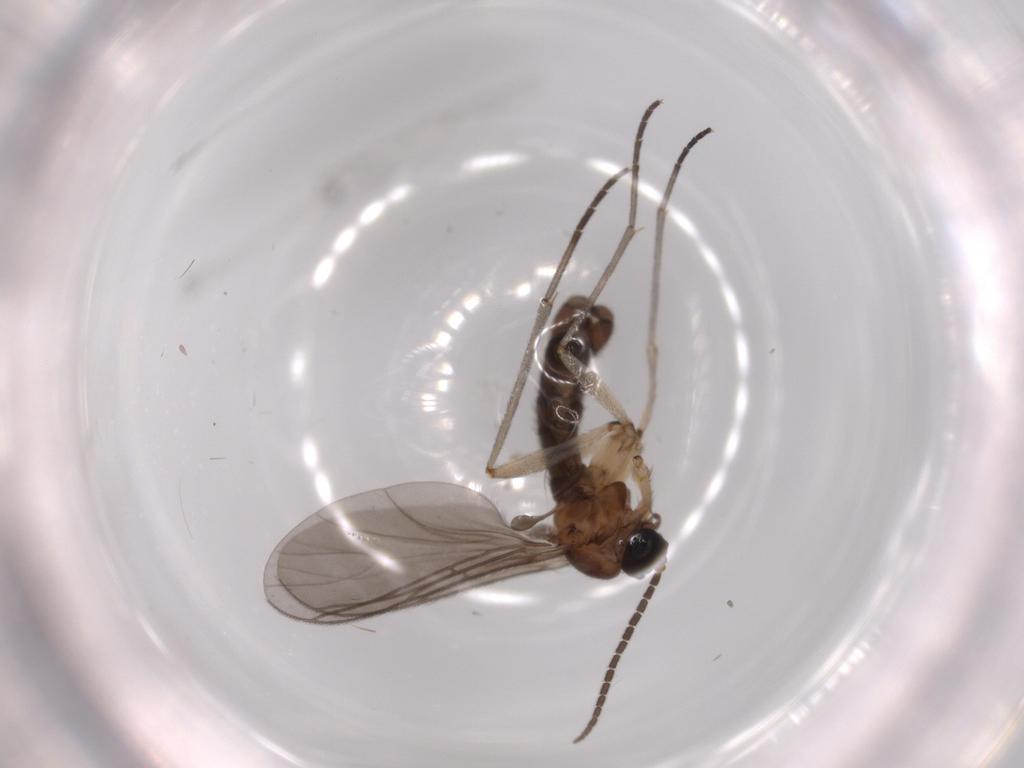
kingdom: Animalia
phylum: Arthropoda
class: Insecta
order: Diptera
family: Sciaridae
